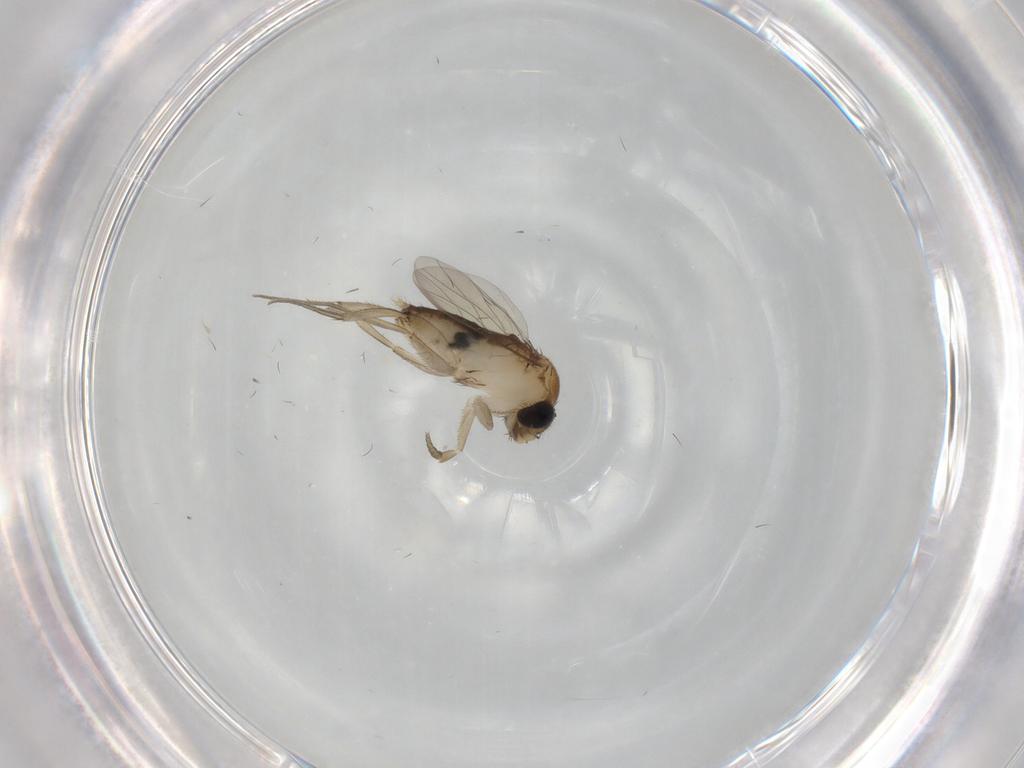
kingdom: Animalia
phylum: Arthropoda
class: Insecta
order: Diptera
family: Phoridae
